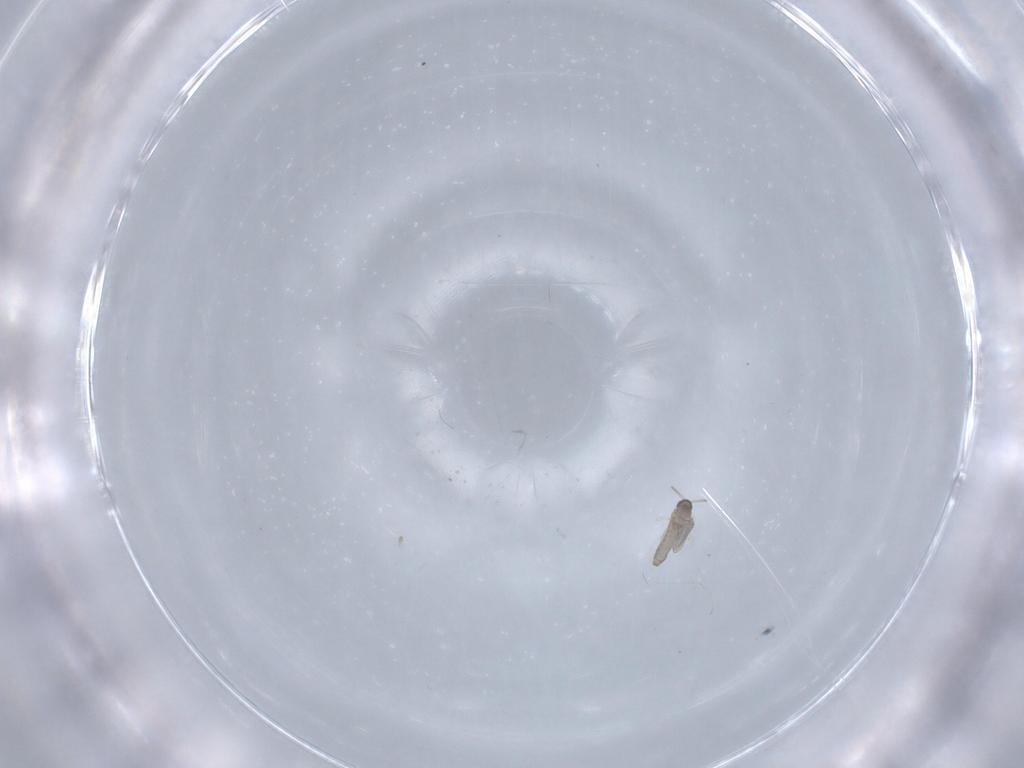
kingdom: Animalia
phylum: Arthropoda
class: Insecta
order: Diptera
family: Cecidomyiidae
